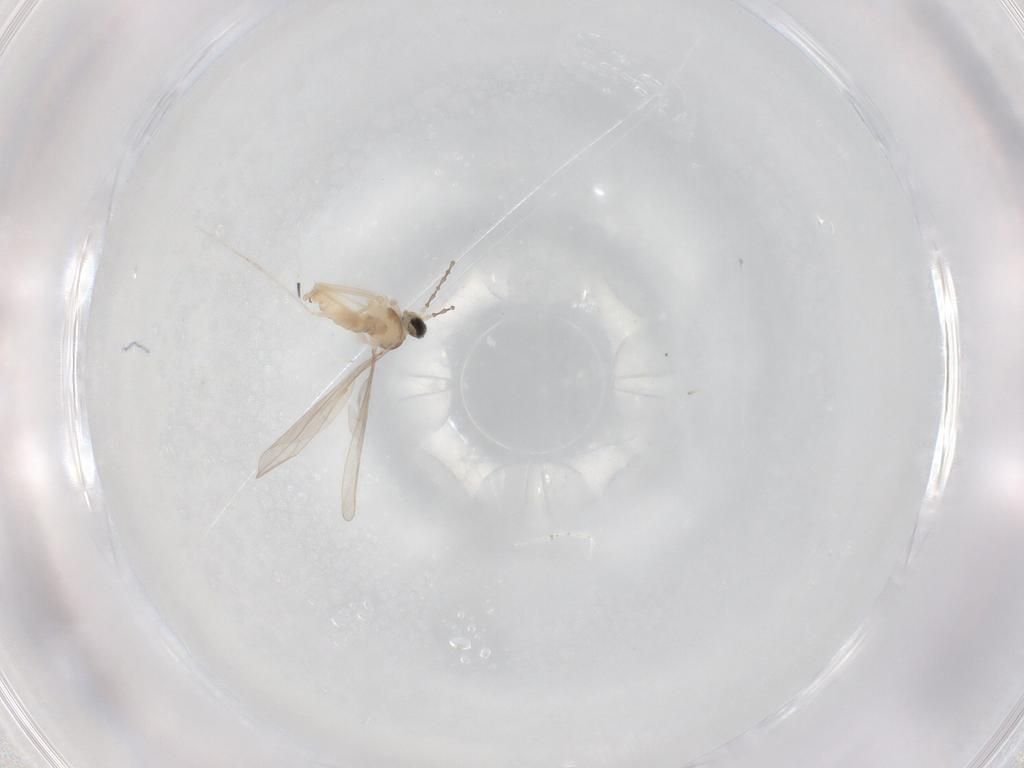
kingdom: Animalia
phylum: Arthropoda
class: Insecta
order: Diptera
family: Cecidomyiidae
